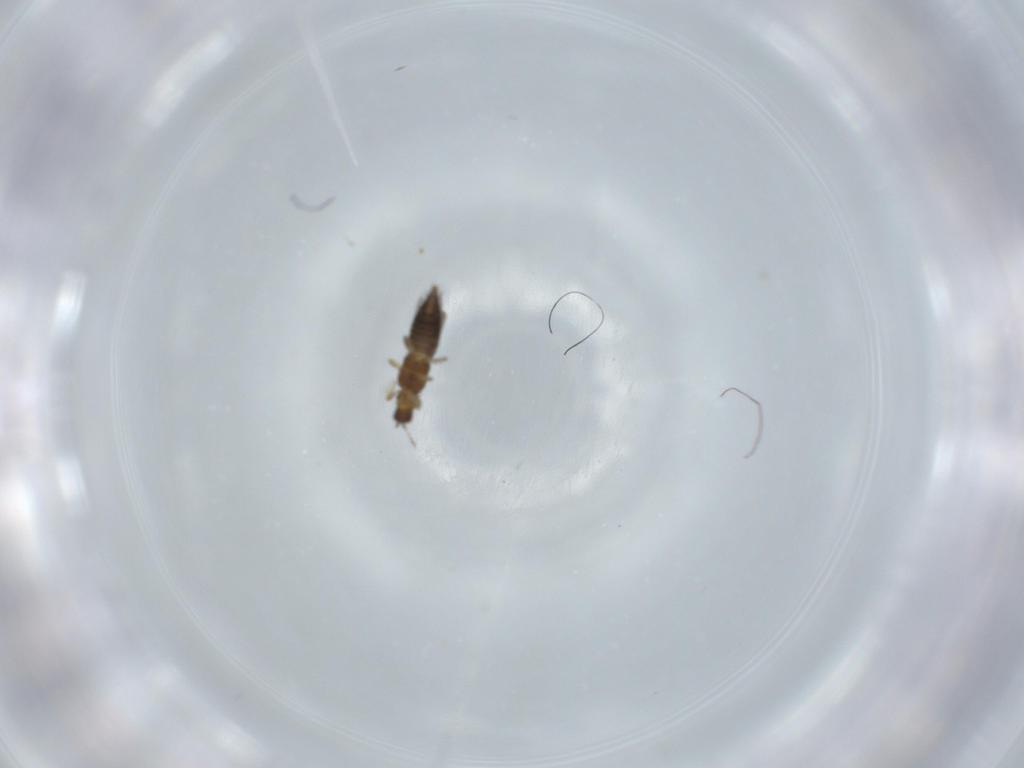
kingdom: Animalia
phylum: Arthropoda
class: Insecta
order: Thysanoptera
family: Thripidae
